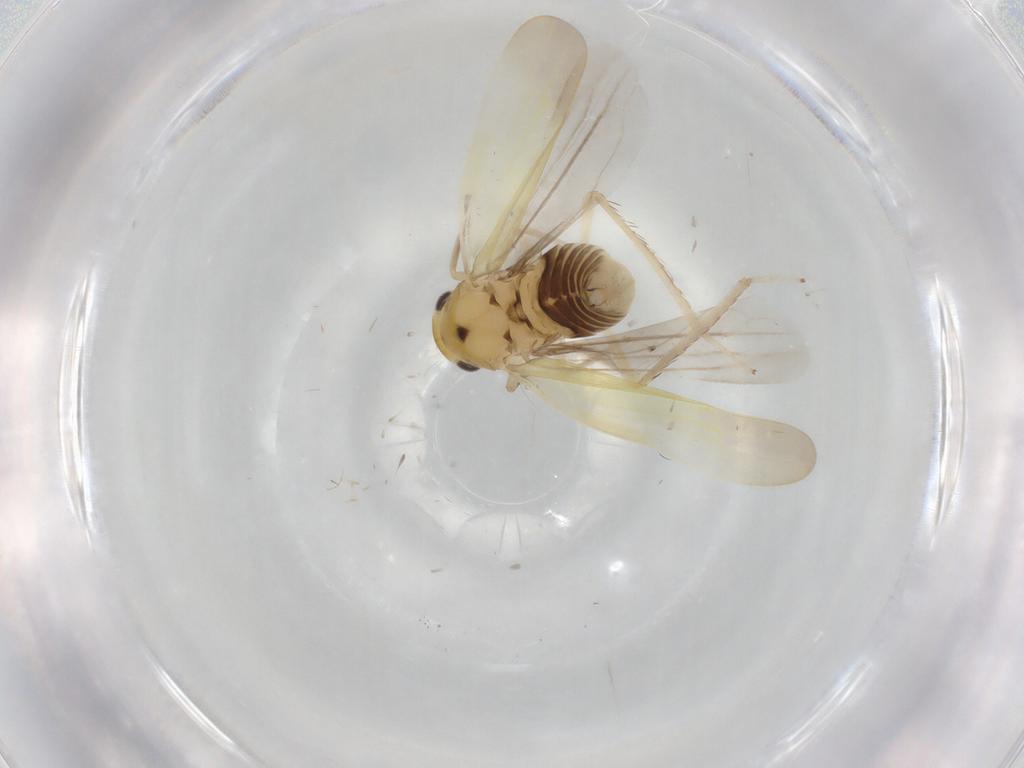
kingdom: Animalia
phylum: Arthropoda
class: Insecta
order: Hemiptera
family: Cicadellidae
